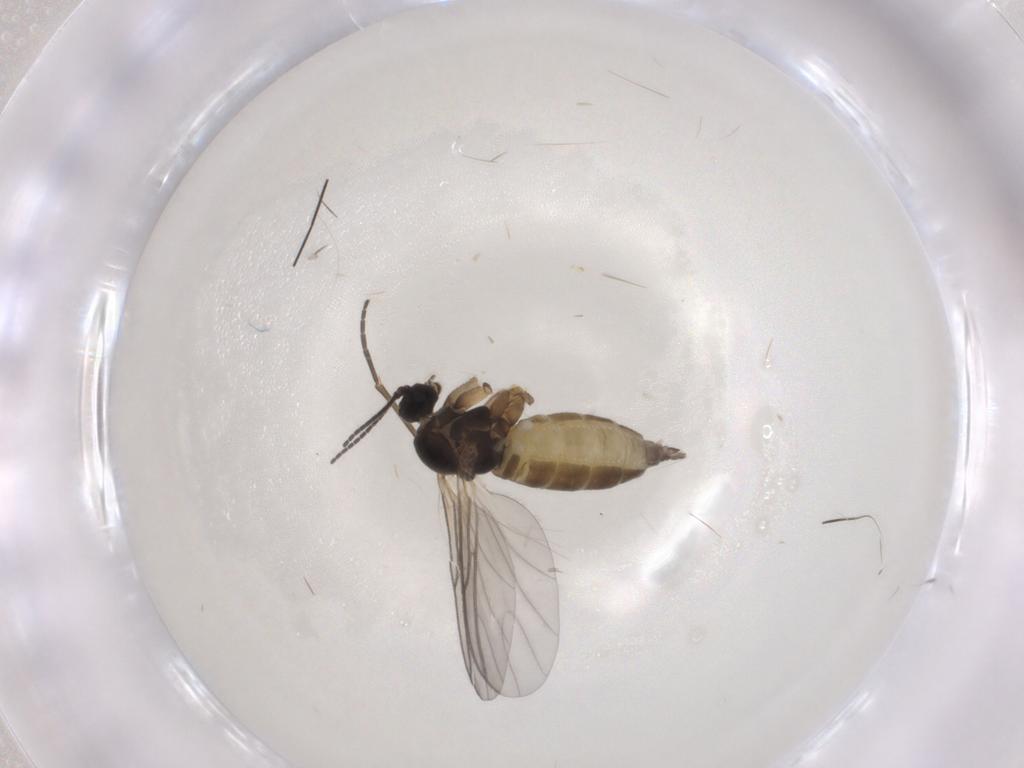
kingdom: Animalia
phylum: Arthropoda
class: Insecta
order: Diptera
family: Sciaridae
